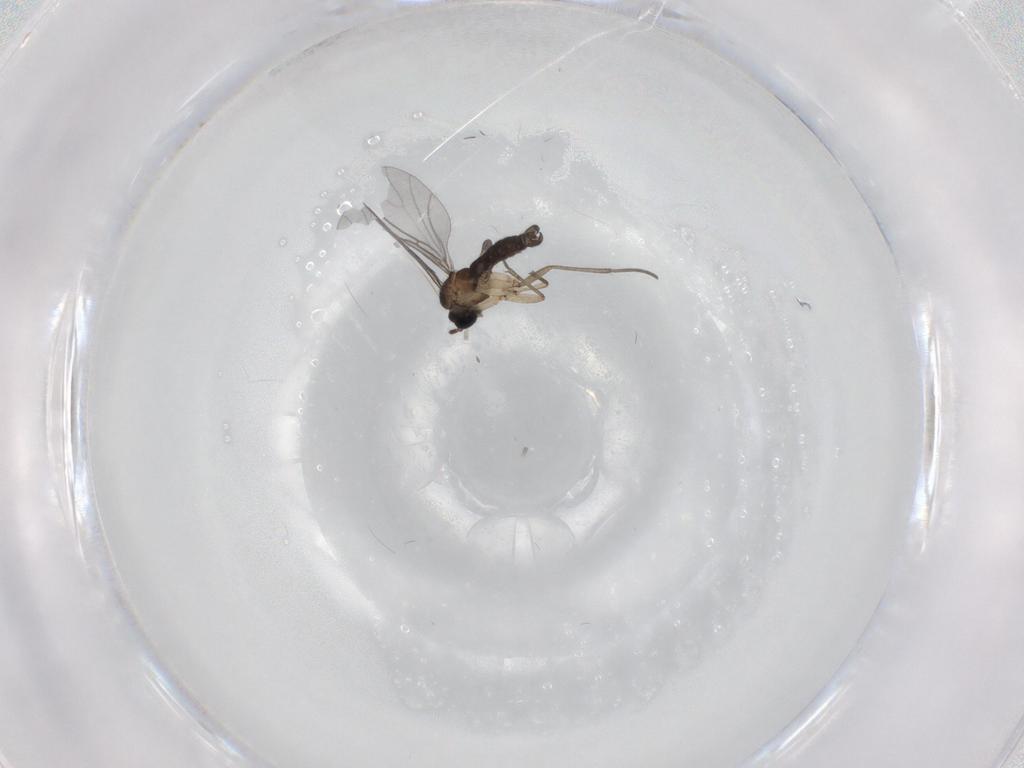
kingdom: Animalia
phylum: Arthropoda
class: Insecta
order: Diptera
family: Sciaridae
